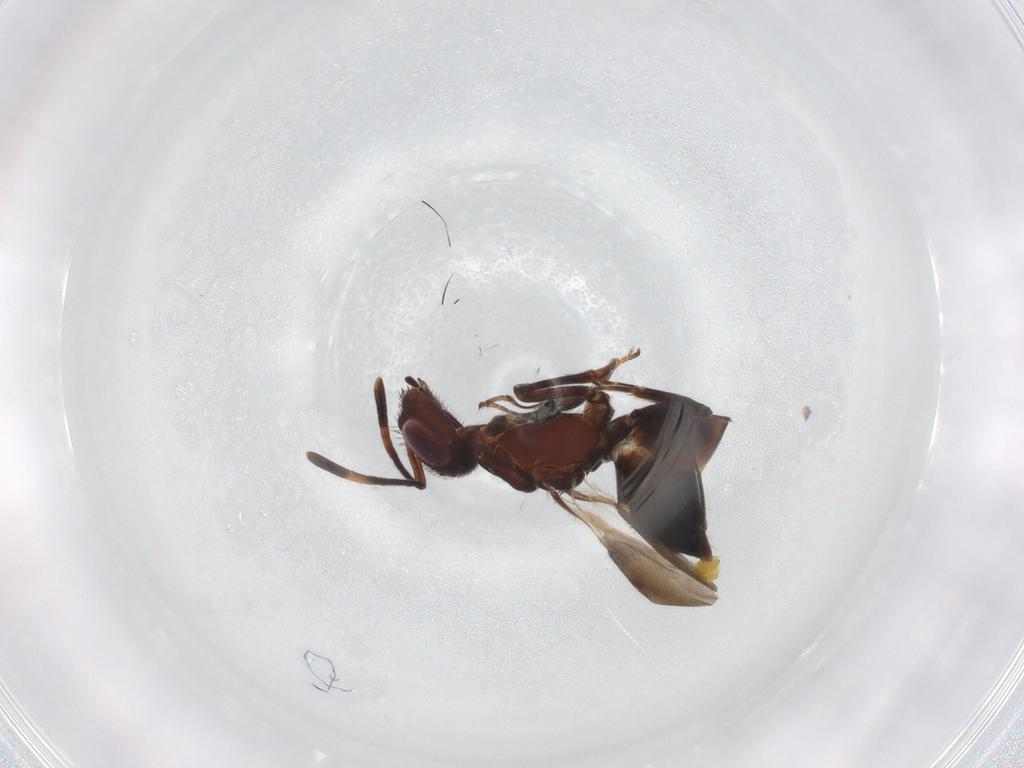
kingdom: Animalia
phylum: Arthropoda
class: Insecta
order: Hymenoptera
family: Eupelmidae
